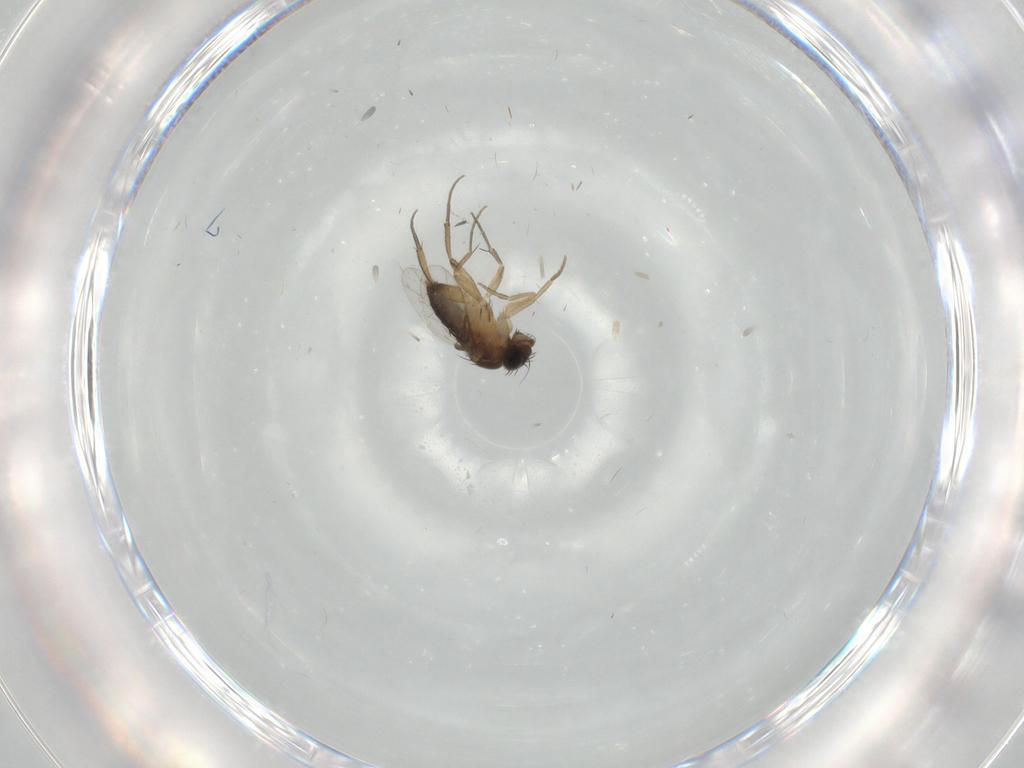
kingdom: Animalia
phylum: Arthropoda
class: Insecta
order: Diptera
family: Phoridae
